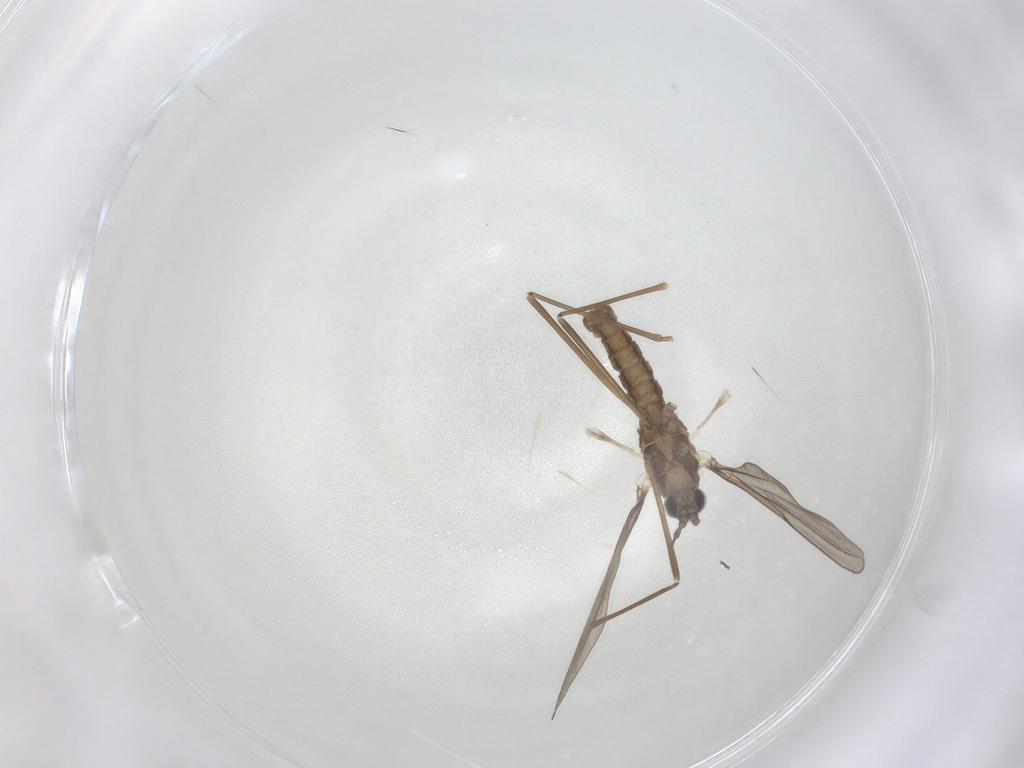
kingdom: Animalia
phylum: Arthropoda
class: Insecta
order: Diptera
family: Cecidomyiidae
